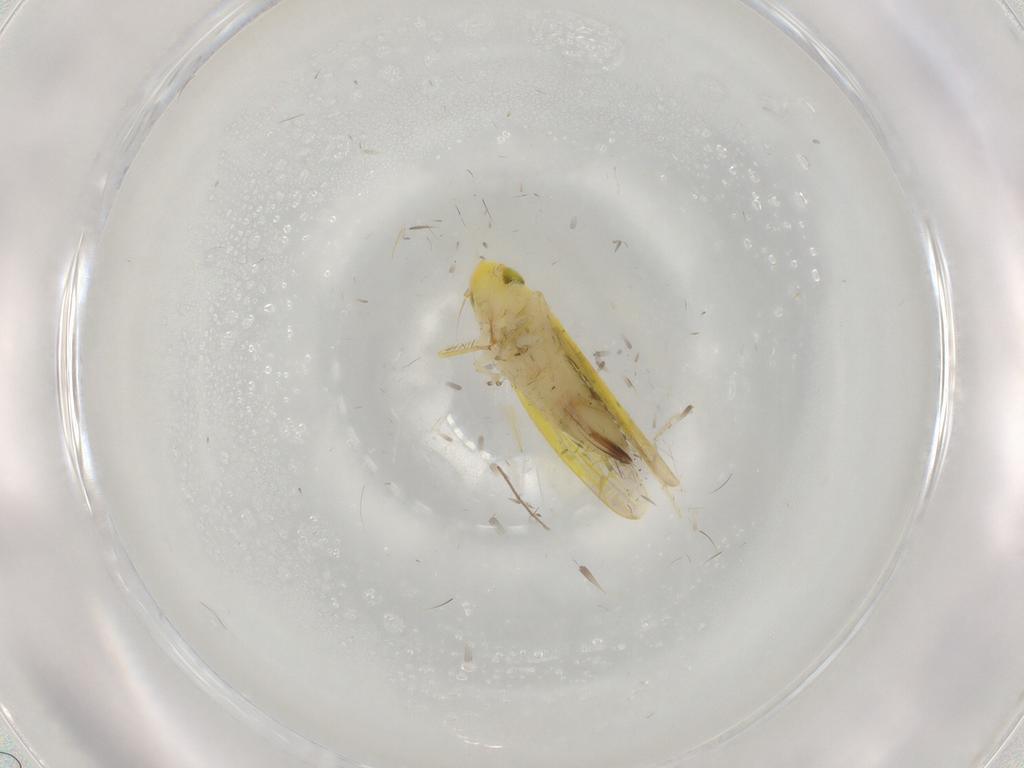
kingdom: Animalia
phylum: Arthropoda
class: Insecta
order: Hemiptera
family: Cicadellidae
